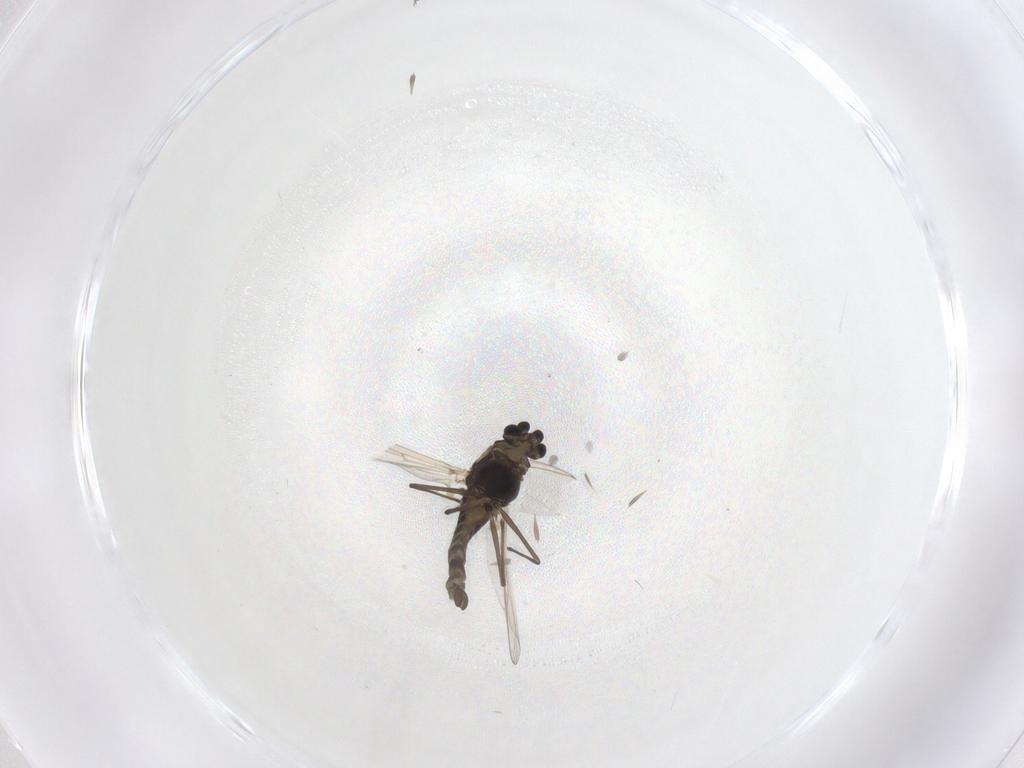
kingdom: Animalia
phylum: Arthropoda
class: Insecta
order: Diptera
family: Chironomidae
